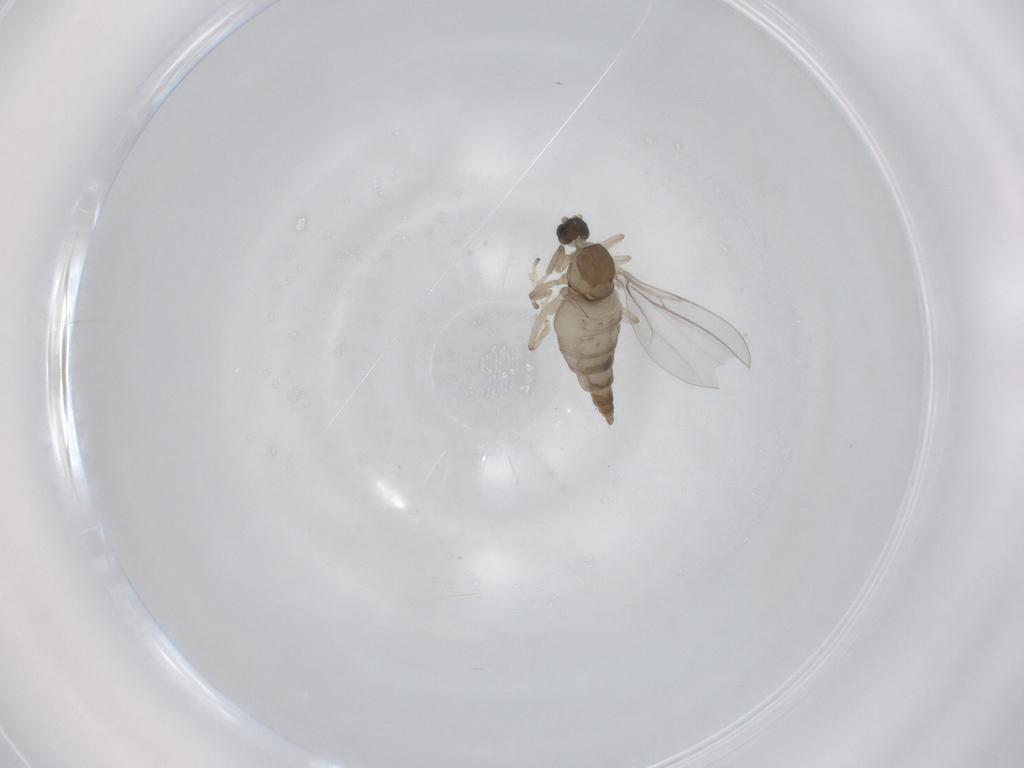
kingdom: Animalia
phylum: Arthropoda
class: Insecta
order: Diptera
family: Cecidomyiidae
